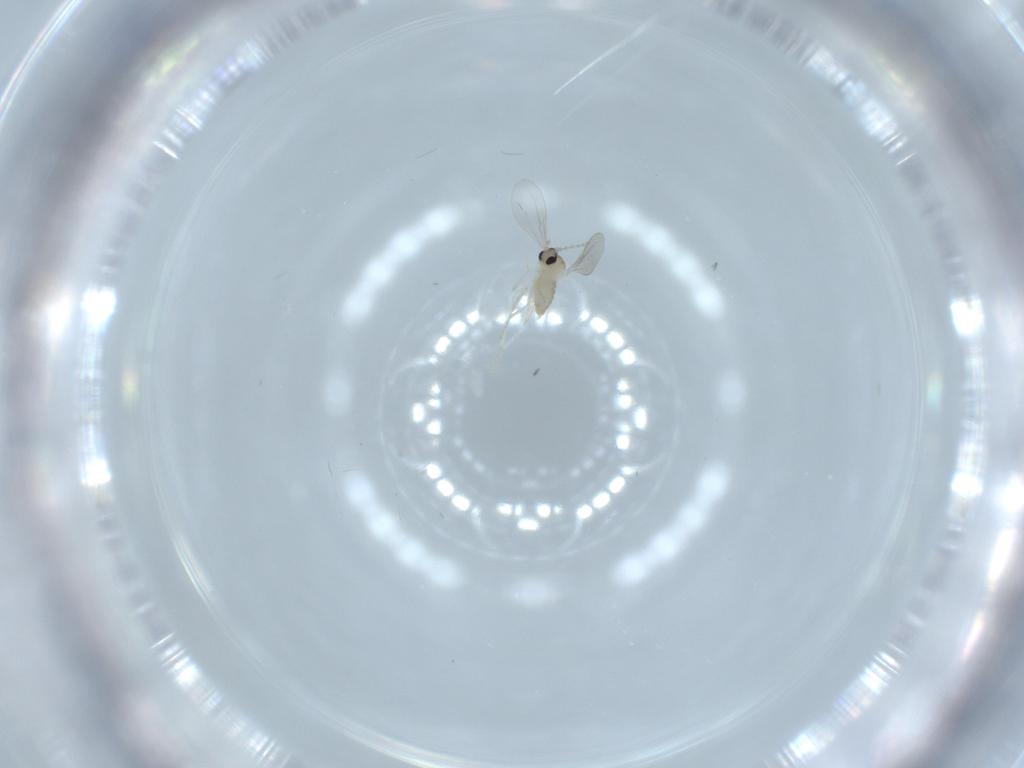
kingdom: Animalia
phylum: Arthropoda
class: Insecta
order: Diptera
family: Cecidomyiidae
